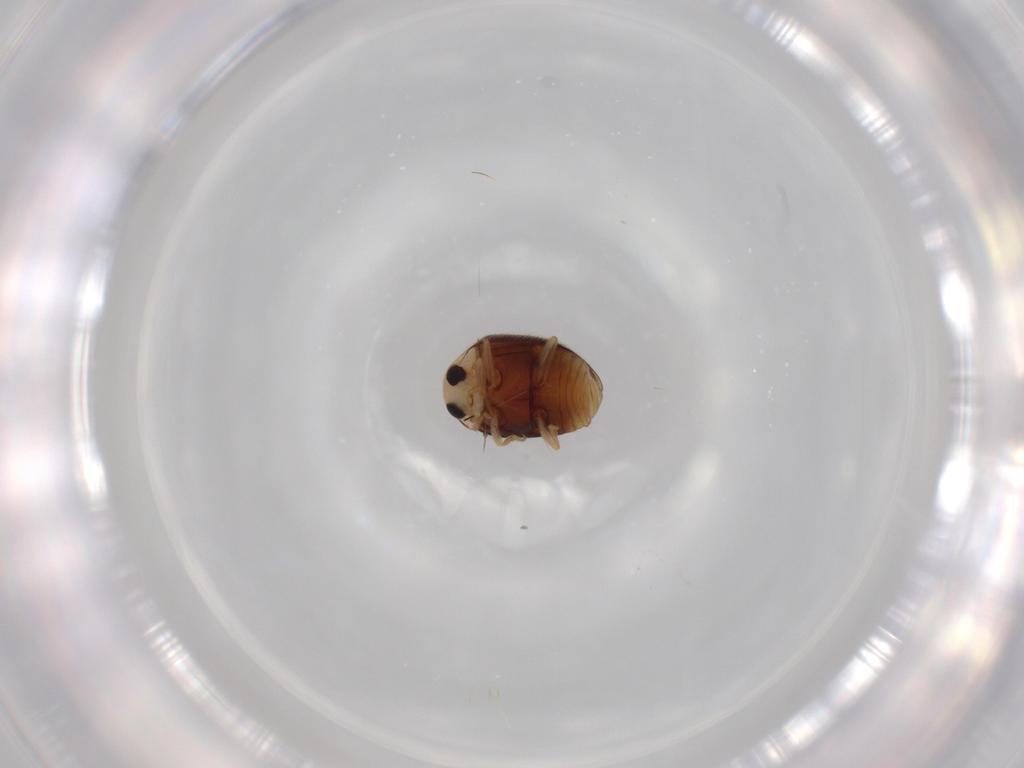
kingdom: Animalia
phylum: Arthropoda
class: Insecta
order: Coleoptera
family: Coccinellidae
